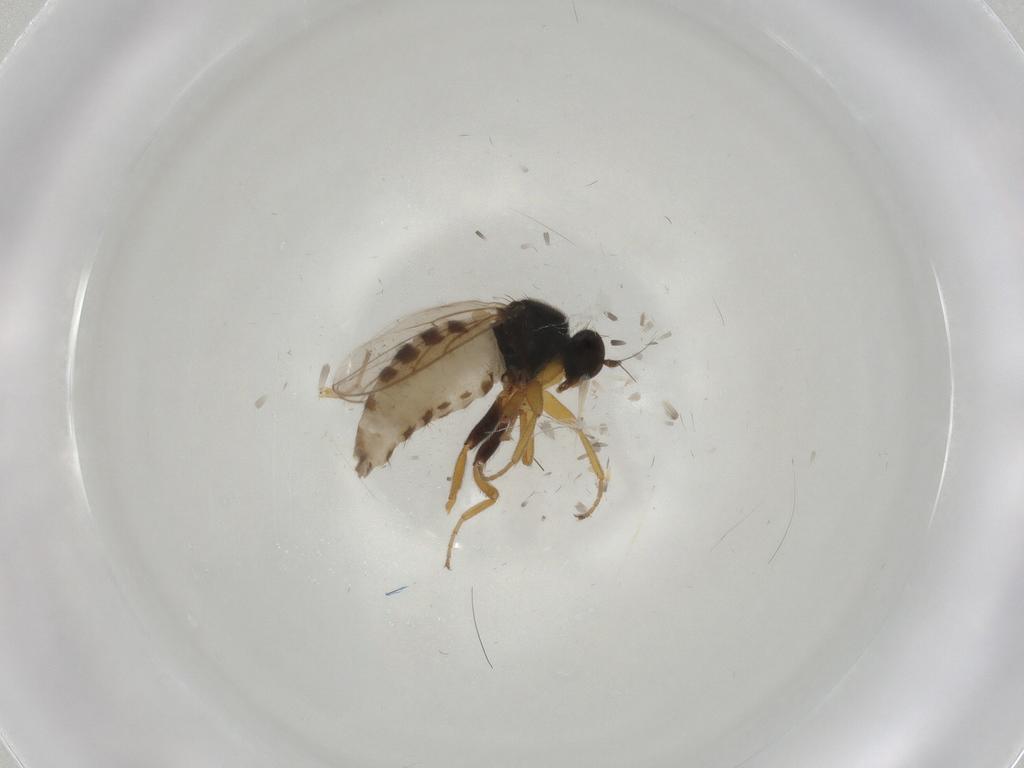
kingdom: Animalia
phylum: Arthropoda
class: Insecta
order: Diptera
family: Hybotidae
